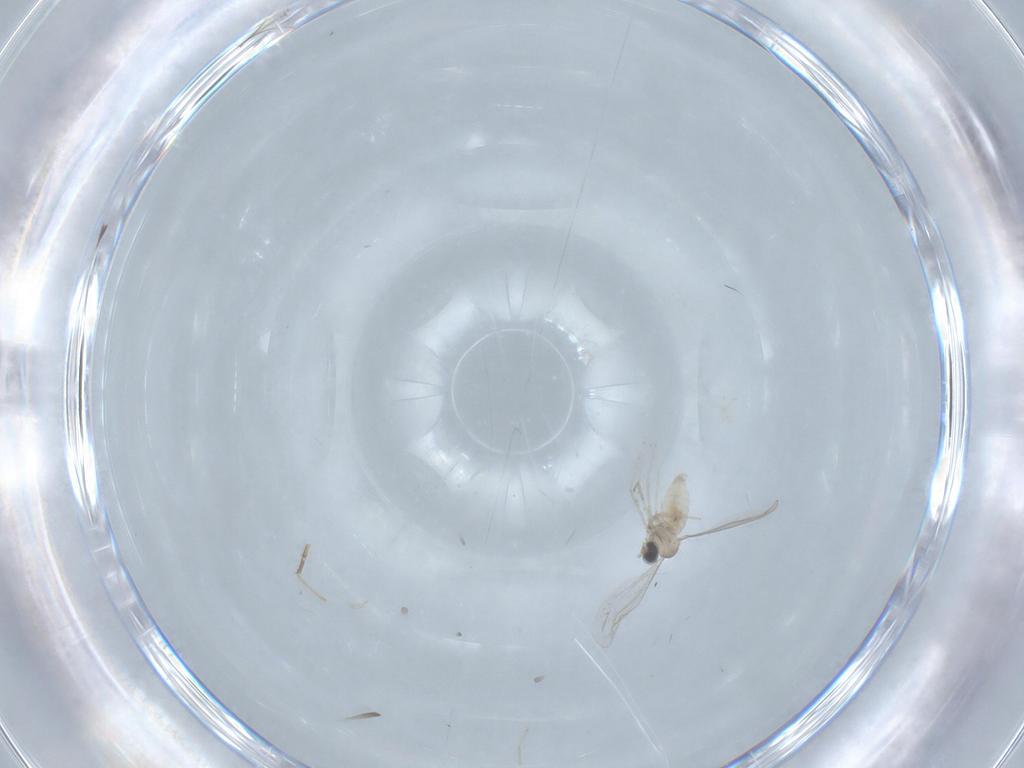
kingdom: Animalia
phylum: Arthropoda
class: Insecta
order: Diptera
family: Cecidomyiidae
